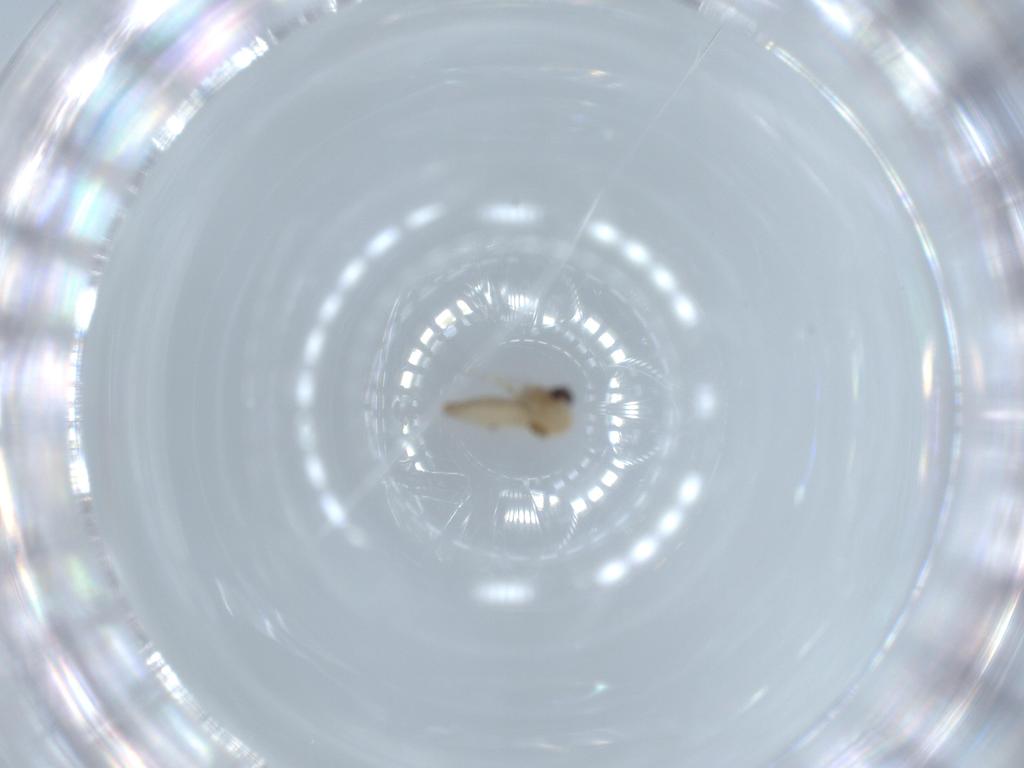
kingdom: Animalia
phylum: Arthropoda
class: Insecta
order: Diptera
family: Ceratopogonidae
